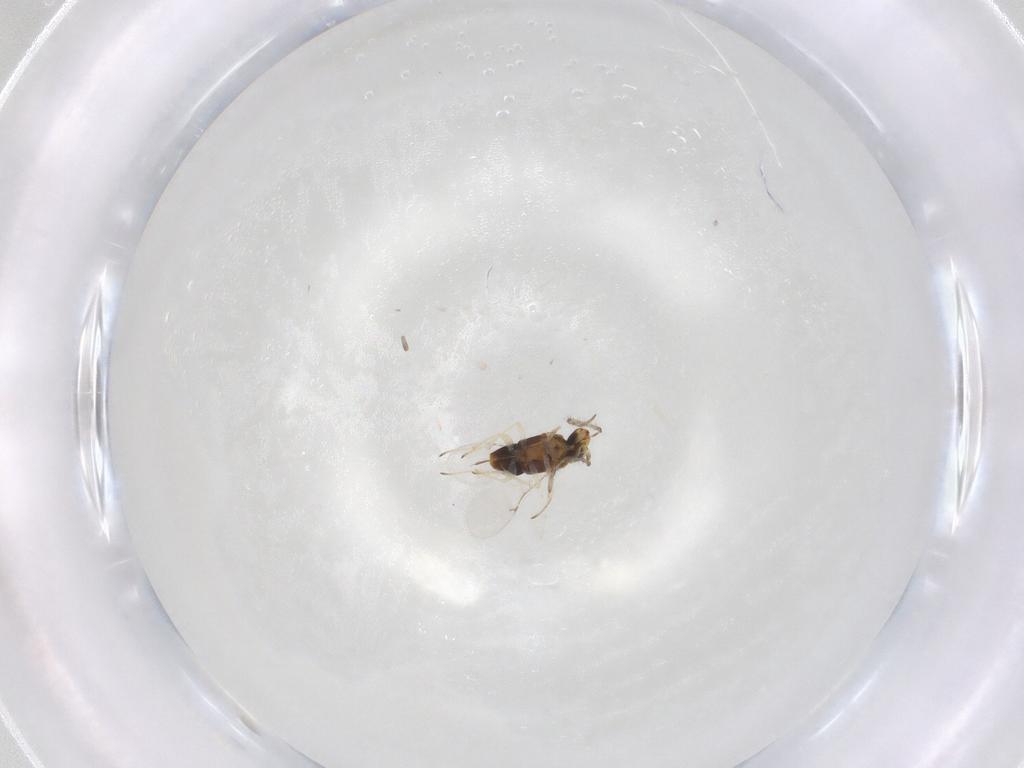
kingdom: Animalia
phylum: Arthropoda
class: Insecta
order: Hymenoptera
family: Encyrtidae
